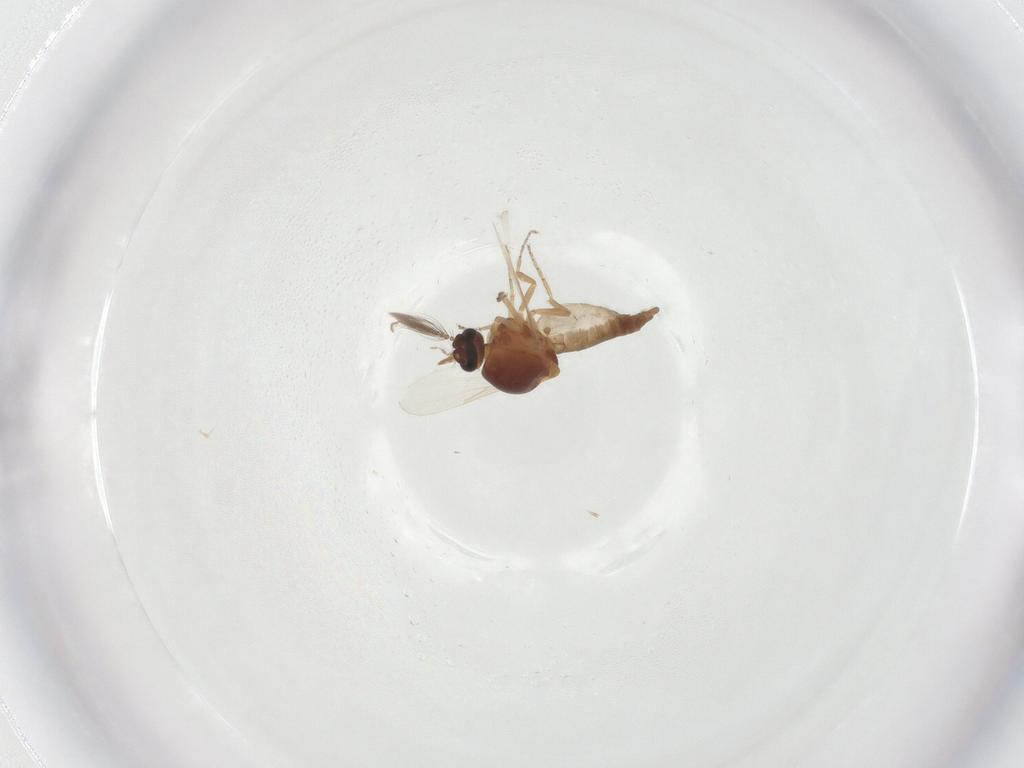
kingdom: Animalia
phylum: Arthropoda
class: Insecta
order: Diptera
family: Ceratopogonidae
